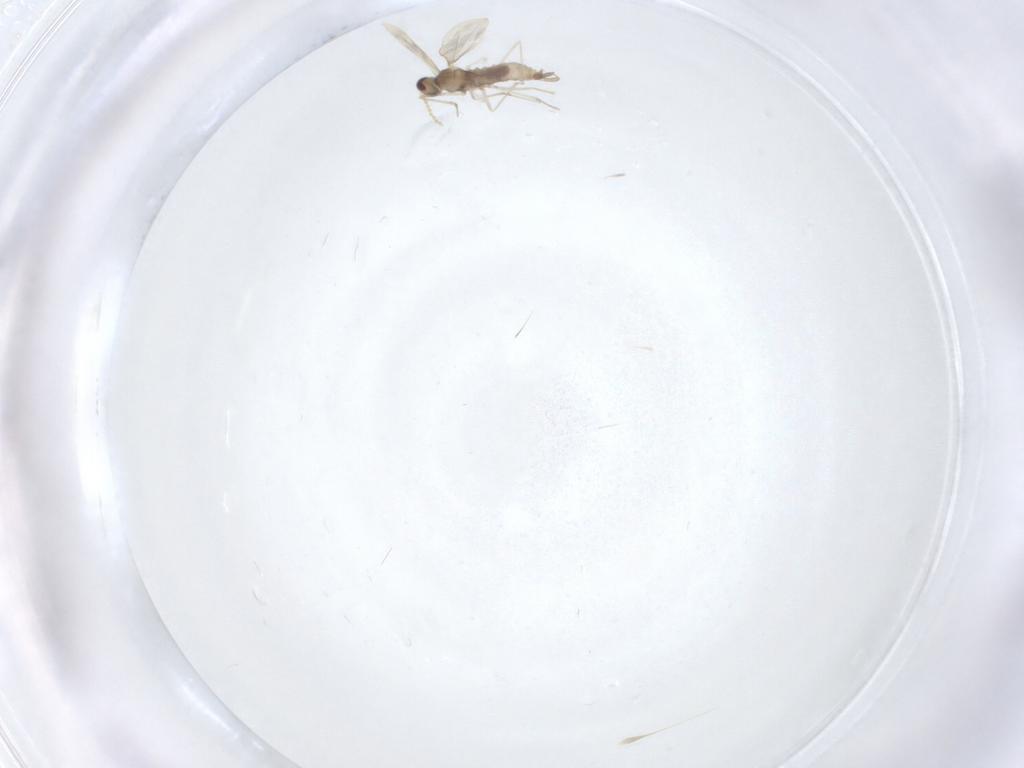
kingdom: Animalia
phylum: Arthropoda
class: Insecta
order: Diptera
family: Cecidomyiidae
